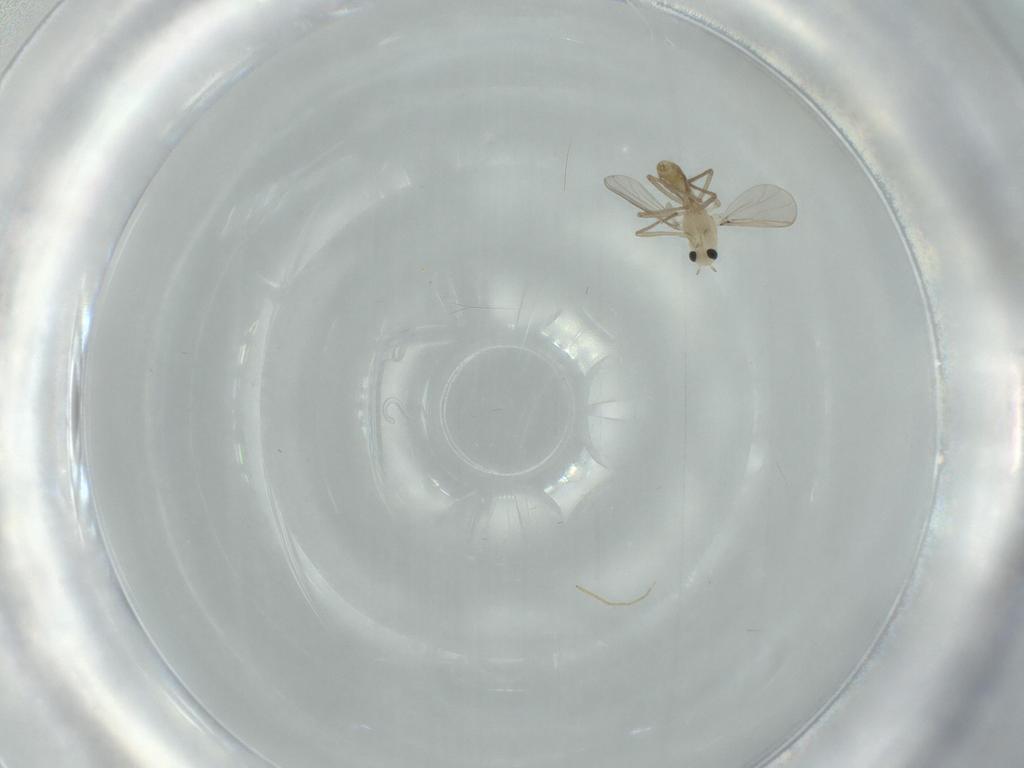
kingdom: Animalia
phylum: Arthropoda
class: Insecta
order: Diptera
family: Chironomidae
